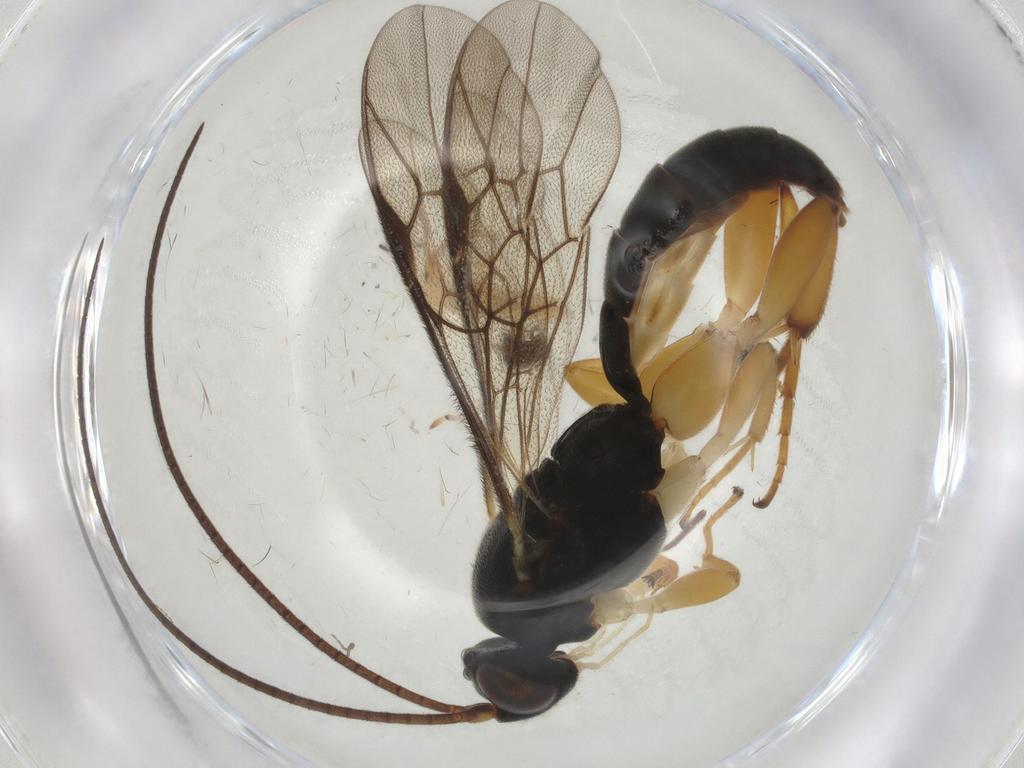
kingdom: Animalia
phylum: Arthropoda
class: Insecta
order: Hymenoptera
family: Ichneumonidae
